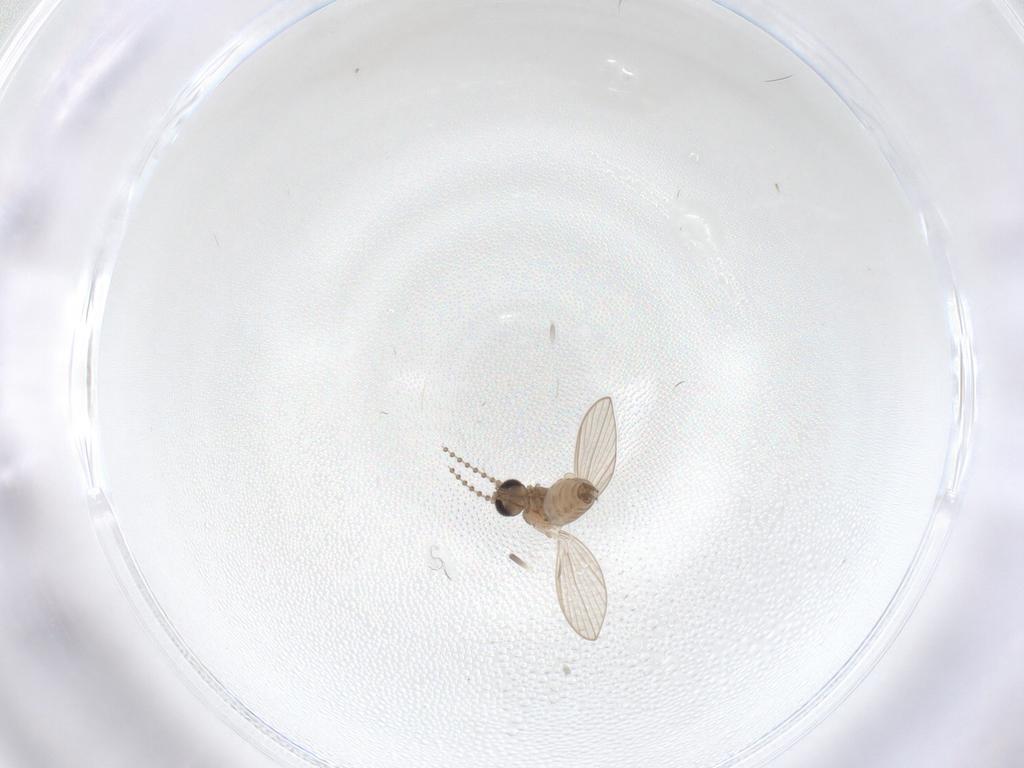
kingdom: Animalia
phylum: Arthropoda
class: Insecta
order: Diptera
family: Psychodidae
